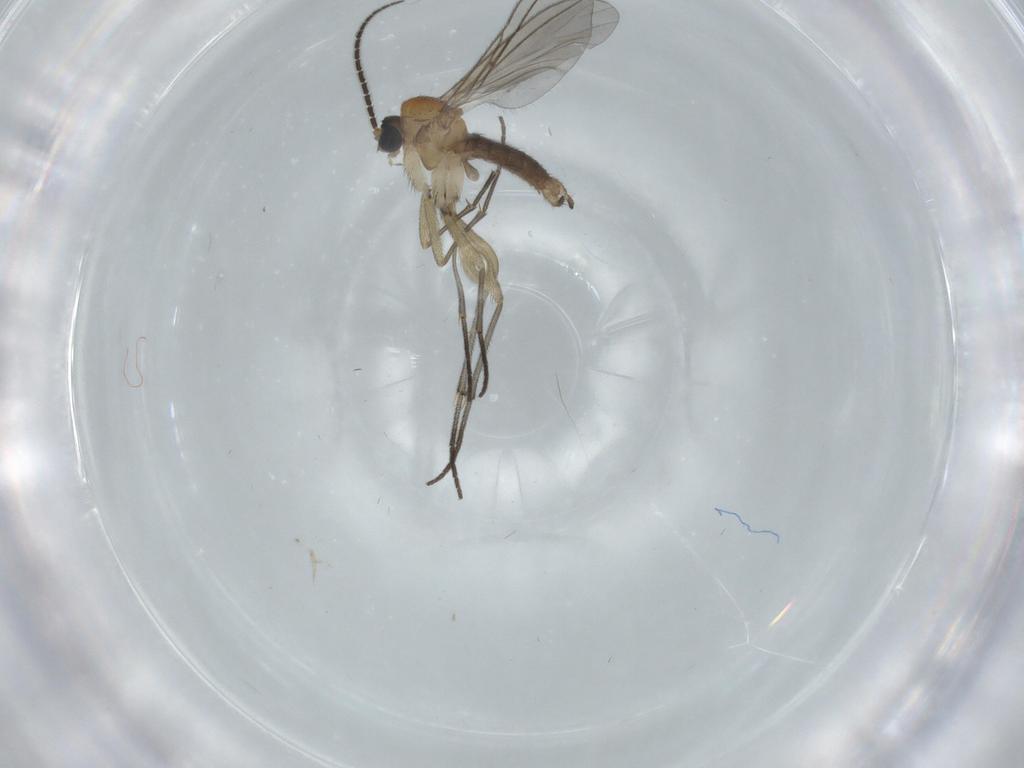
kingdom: Animalia
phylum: Arthropoda
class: Insecta
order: Diptera
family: Sciaridae
